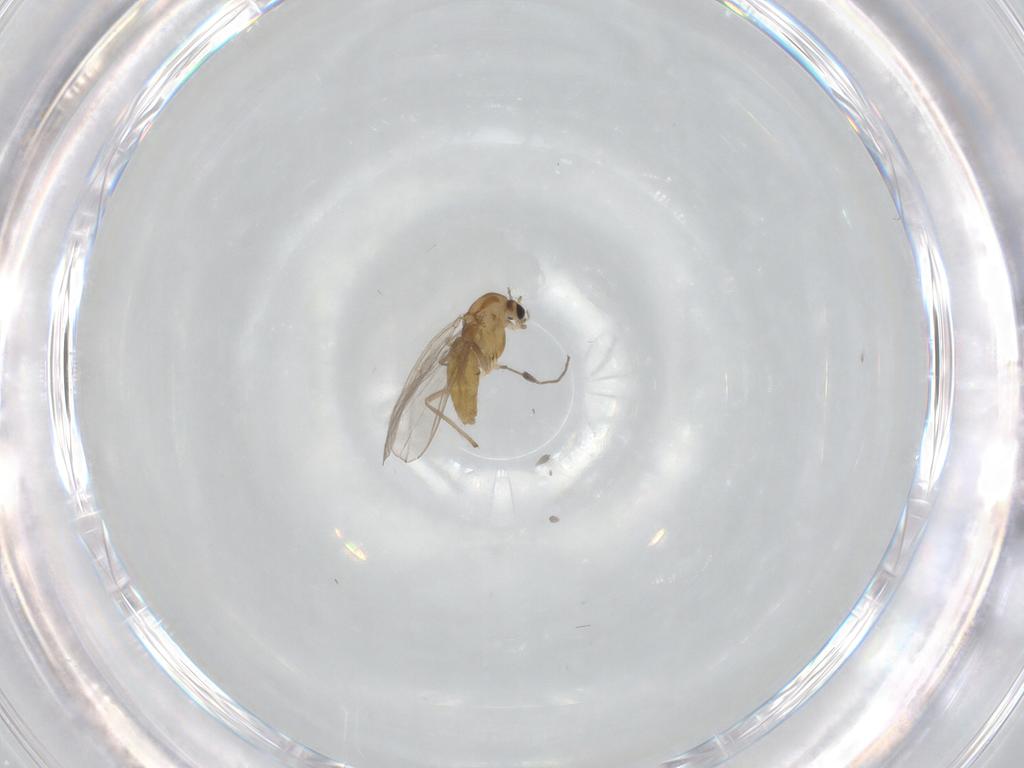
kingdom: Animalia
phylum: Arthropoda
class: Insecta
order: Diptera
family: Chironomidae
